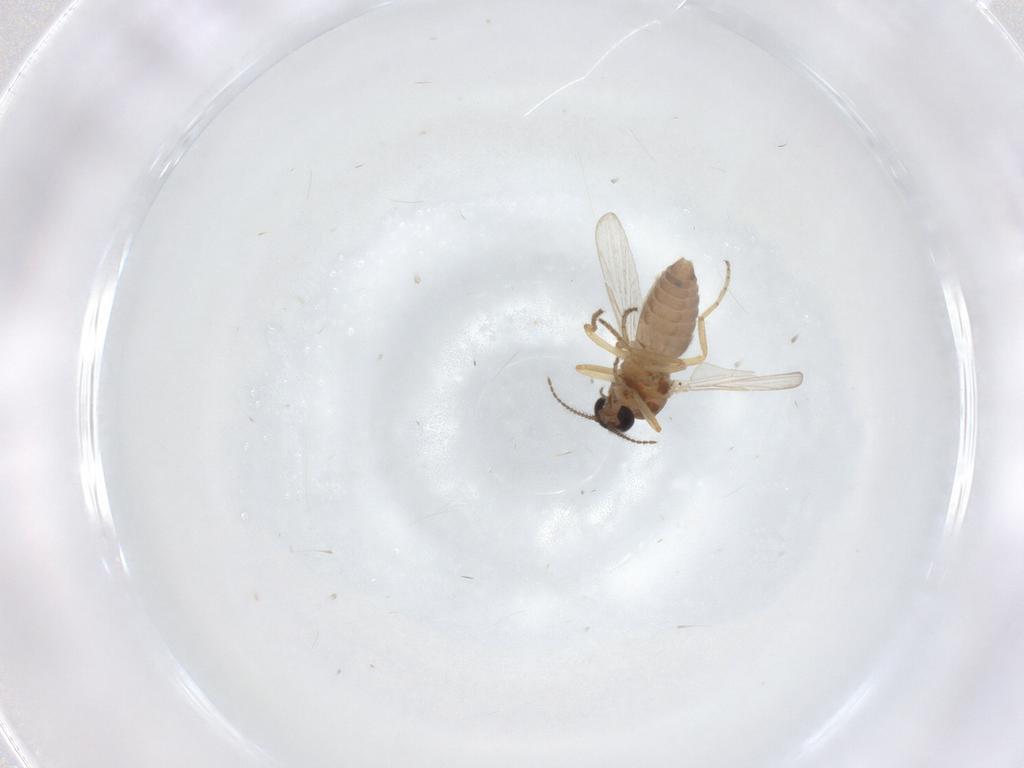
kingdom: Animalia
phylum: Arthropoda
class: Insecta
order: Diptera
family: Ceratopogonidae
